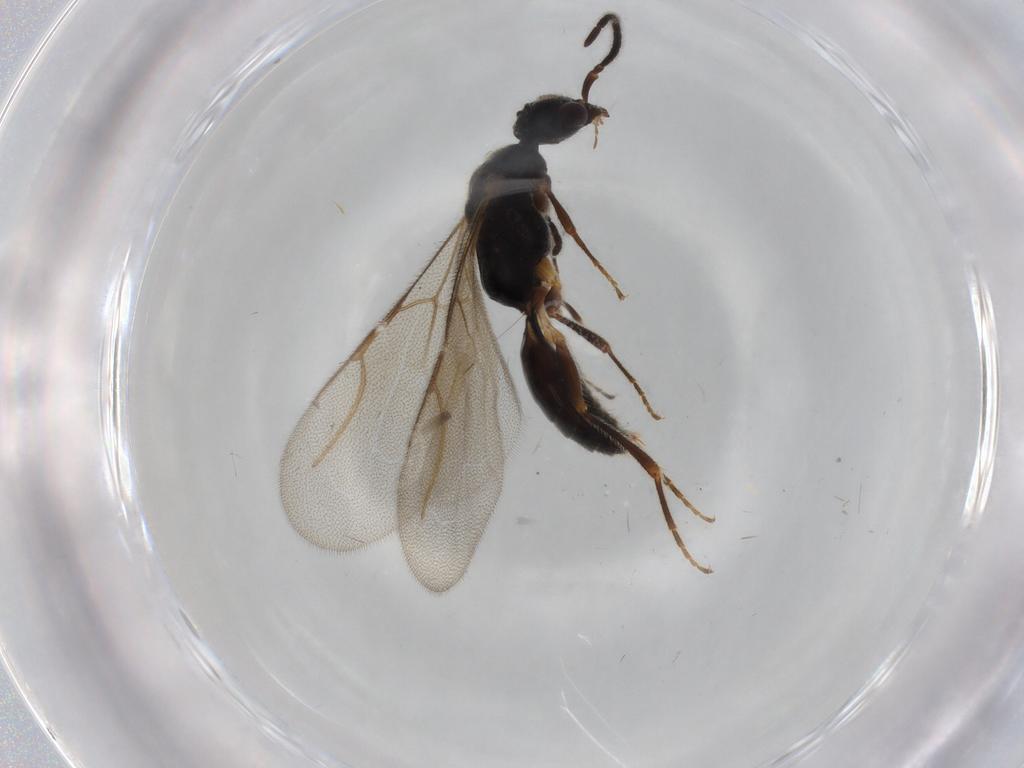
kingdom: Animalia
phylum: Arthropoda
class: Insecta
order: Hymenoptera
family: Bethylidae
